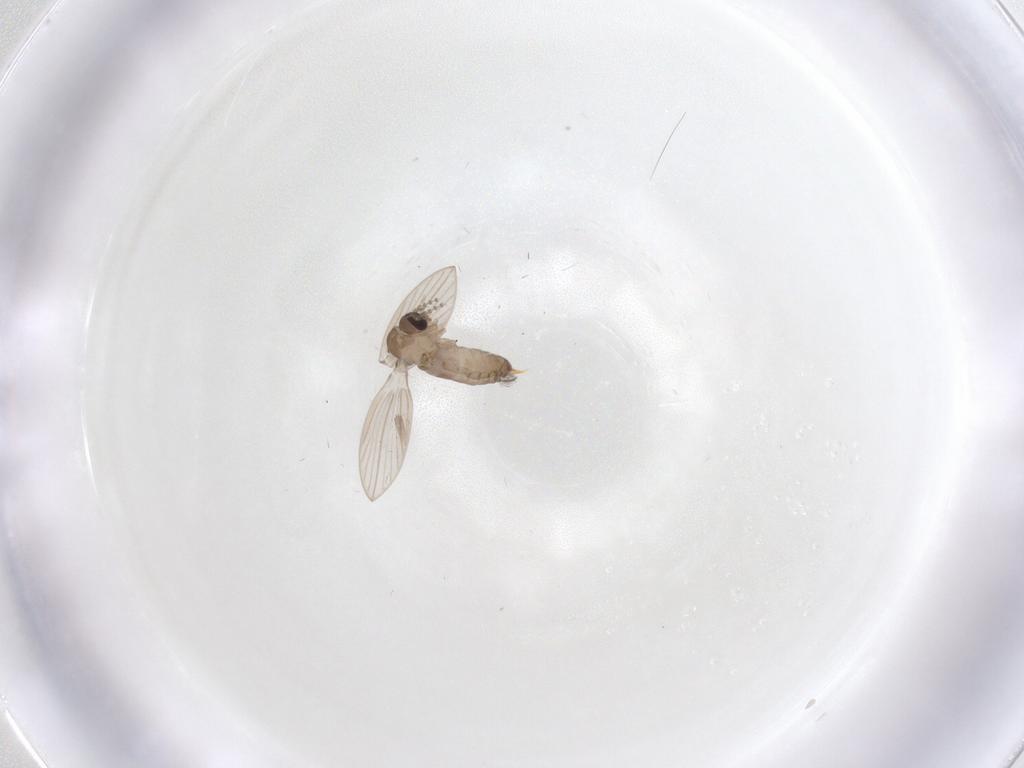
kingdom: Animalia
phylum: Arthropoda
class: Insecta
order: Diptera
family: Psychodidae
